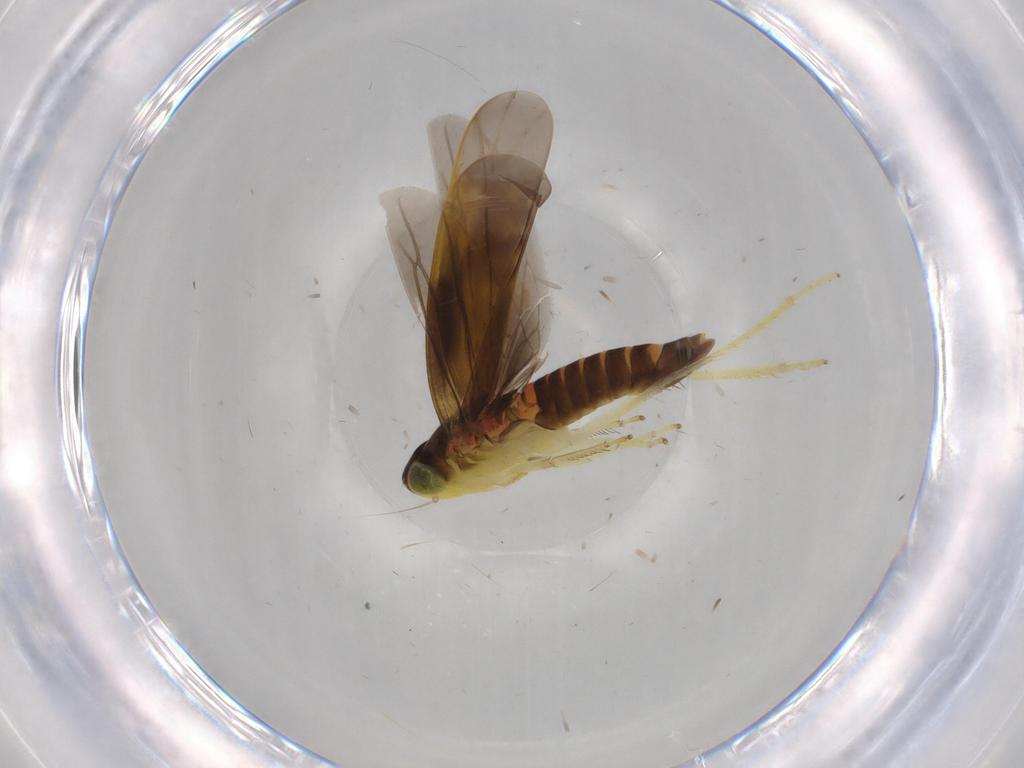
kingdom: Animalia
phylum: Arthropoda
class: Insecta
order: Hemiptera
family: Cicadellidae
